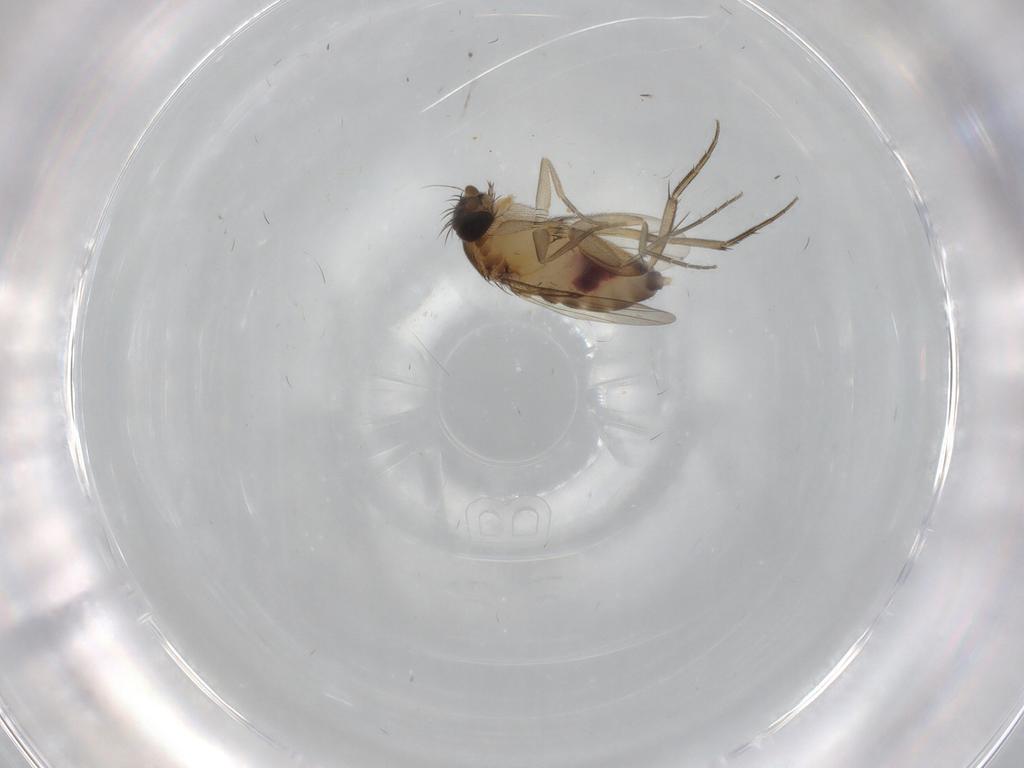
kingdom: Animalia
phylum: Arthropoda
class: Insecta
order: Diptera
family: Phoridae
